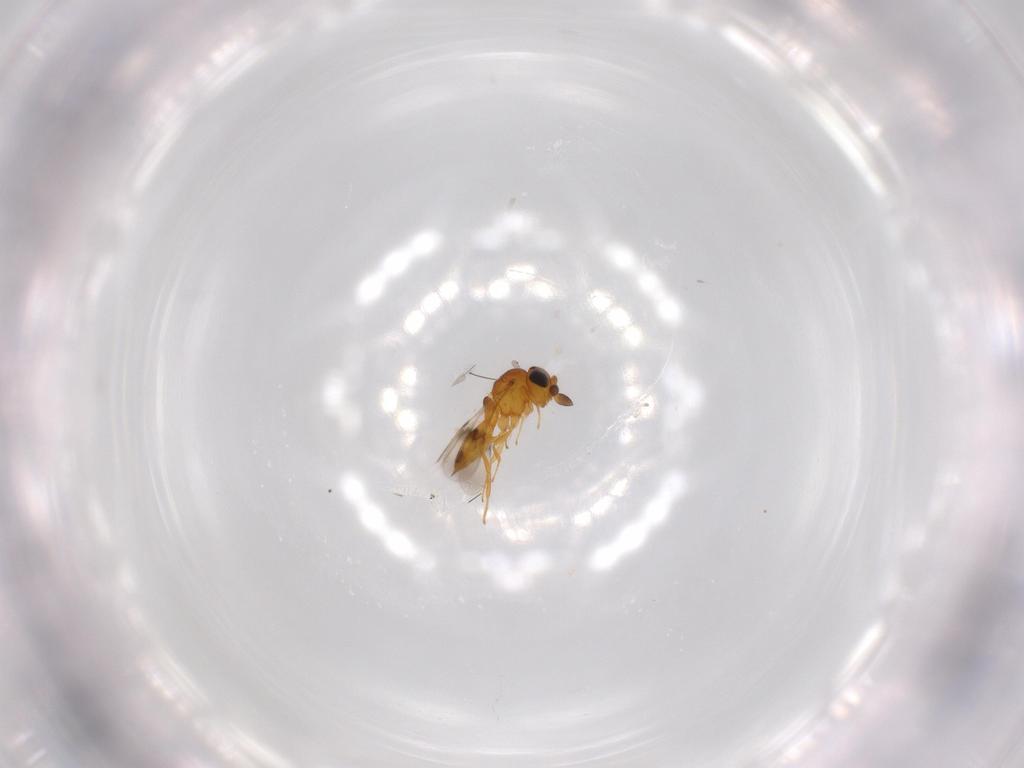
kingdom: Animalia
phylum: Arthropoda
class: Insecta
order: Hymenoptera
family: Scelionidae
